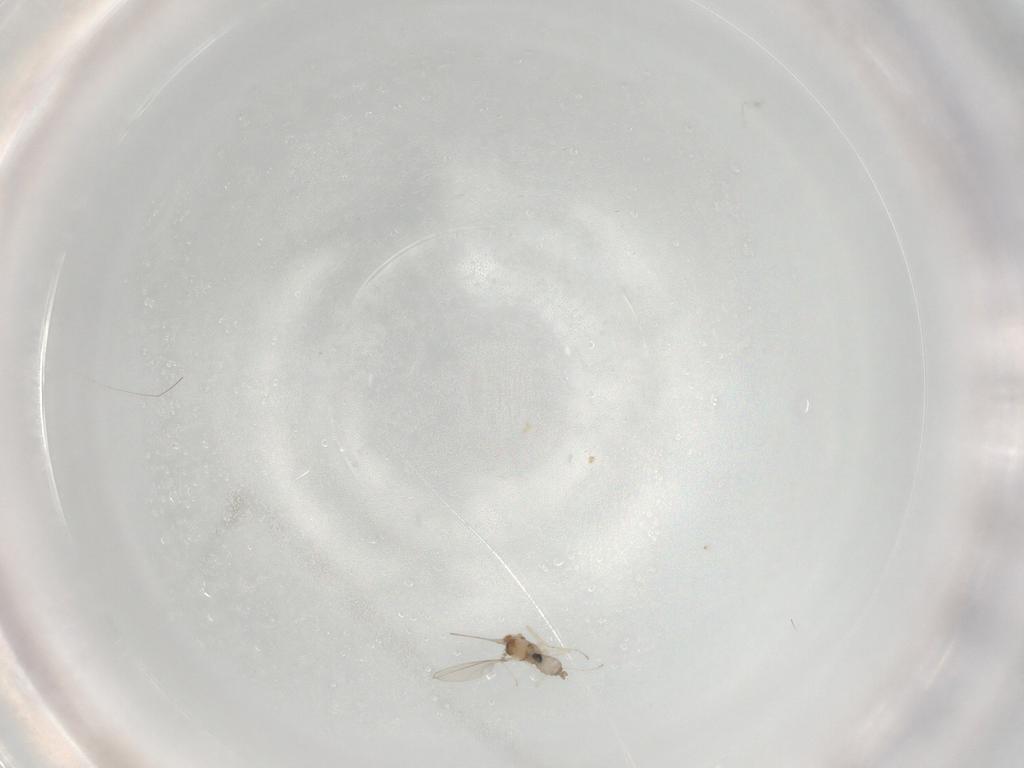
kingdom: Animalia
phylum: Arthropoda
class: Insecta
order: Diptera
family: Cecidomyiidae
